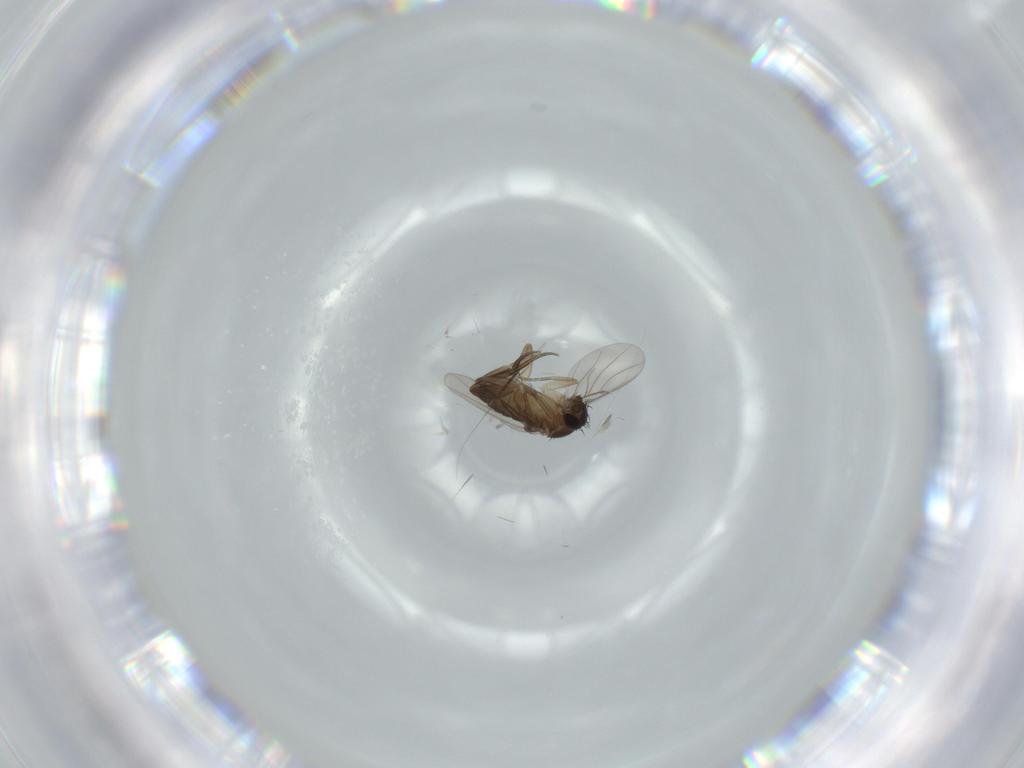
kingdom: Animalia
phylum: Arthropoda
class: Insecta
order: Diptera
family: Phoridae
